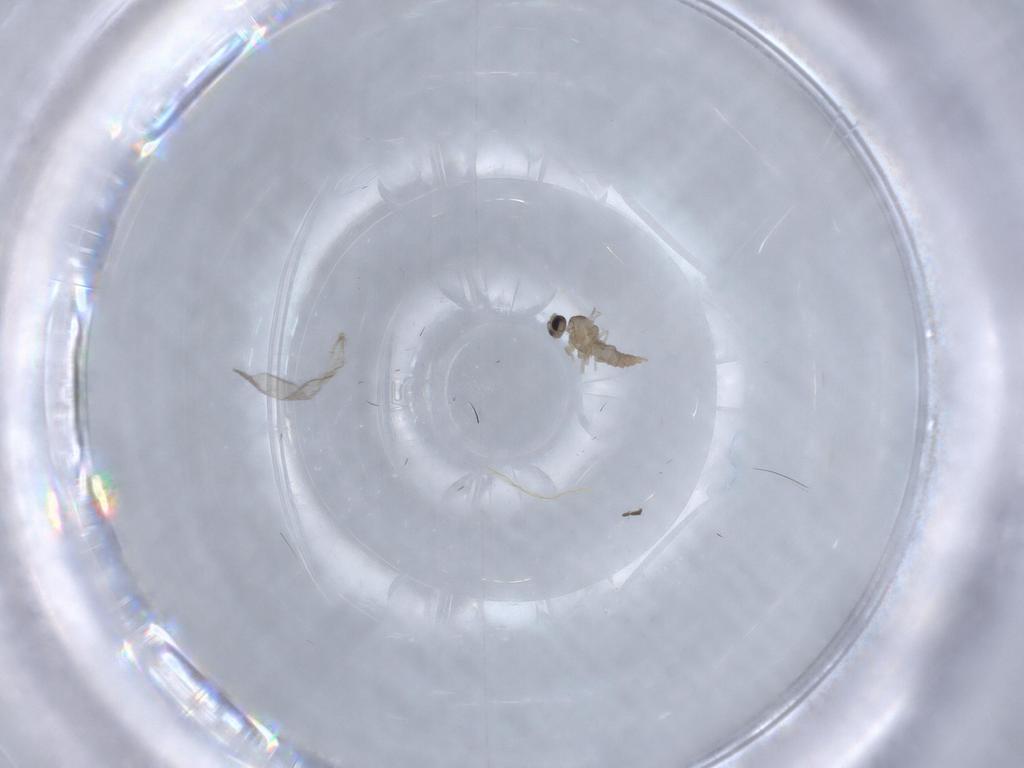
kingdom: Animalia
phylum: Arthropoda
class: Insecta
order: Diptera
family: Cecidomyiidae
